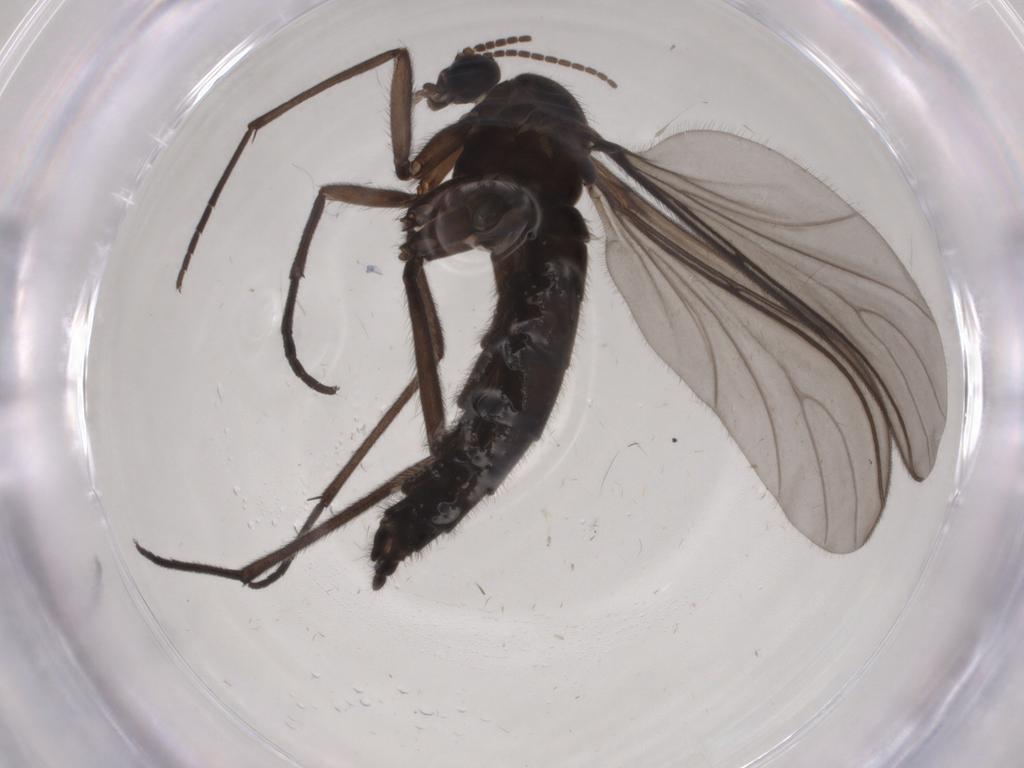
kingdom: Animalia
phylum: Arthropoda
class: Insecta
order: Diptera
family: Sciaridae
